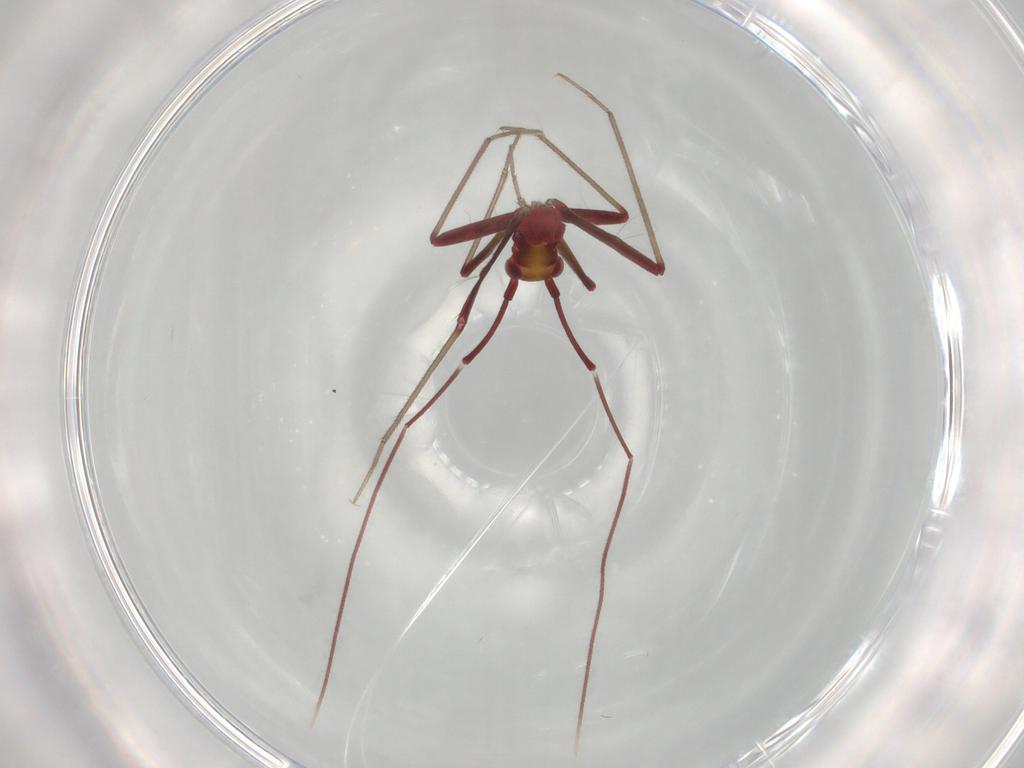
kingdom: Animalia
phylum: Arthropoda
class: Insecta
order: Hemiptera
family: Miridae
